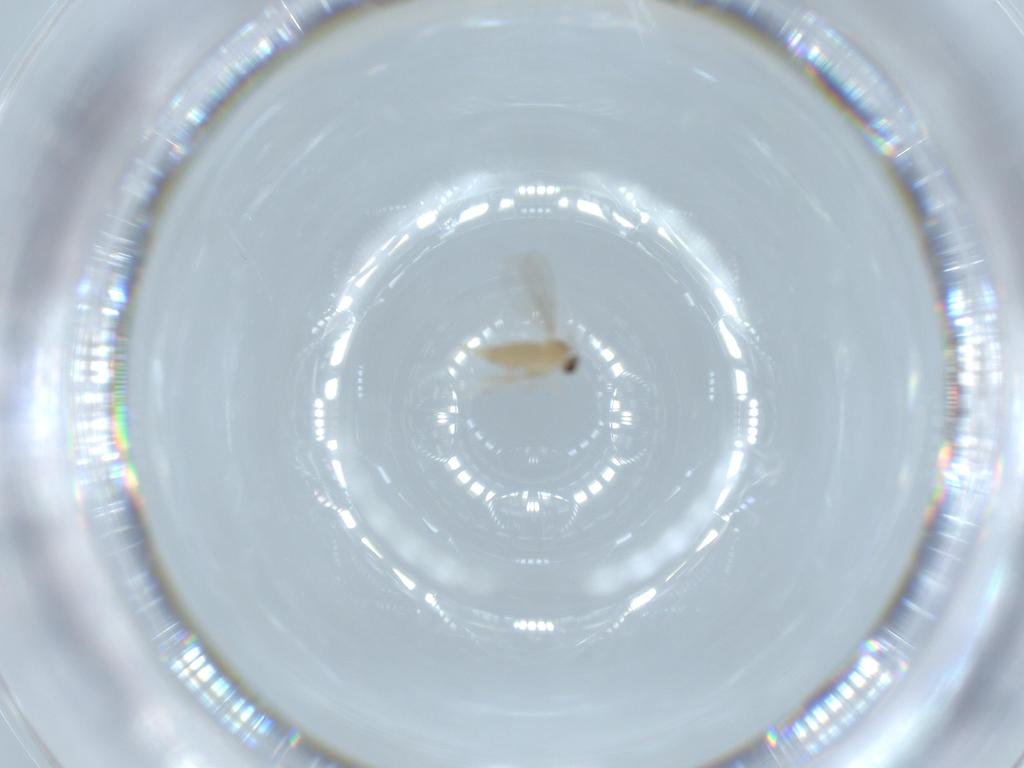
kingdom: Animalia
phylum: Arthropoda
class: Insecta
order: Diptera
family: Cecidomyiidae
